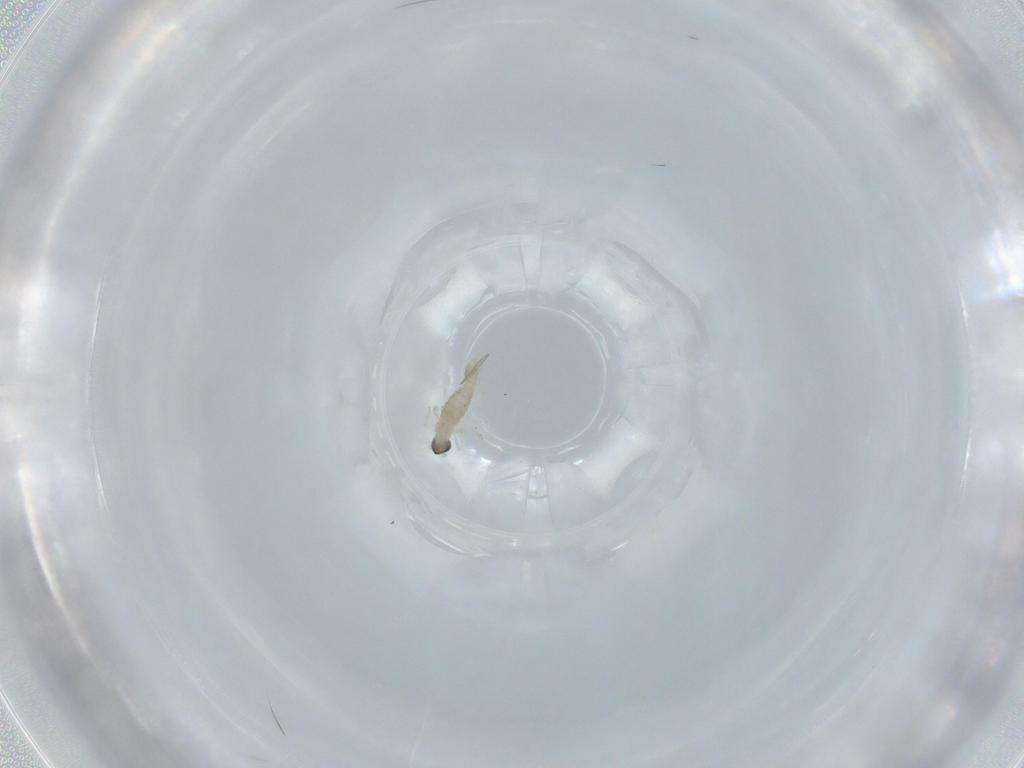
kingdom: Animalia
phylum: Arthropoda
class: Insecta
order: Diptera
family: Cecidomyiidae
